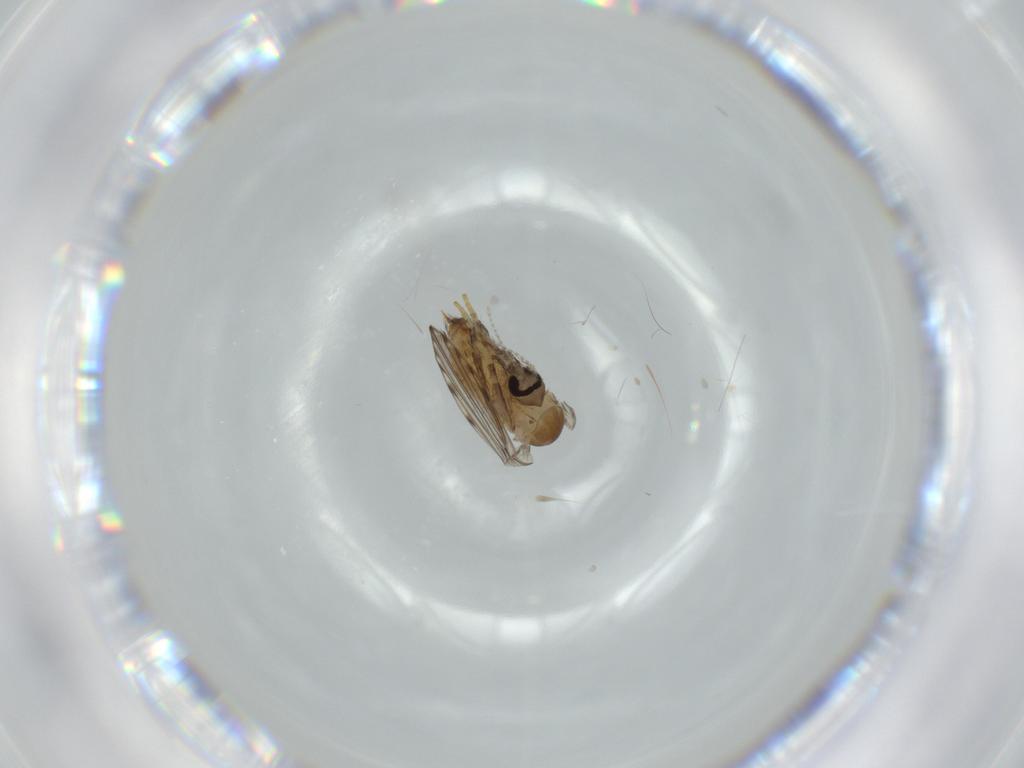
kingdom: Animalia
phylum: Arthropoda
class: Insecta
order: Diptera
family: Psychodidae
